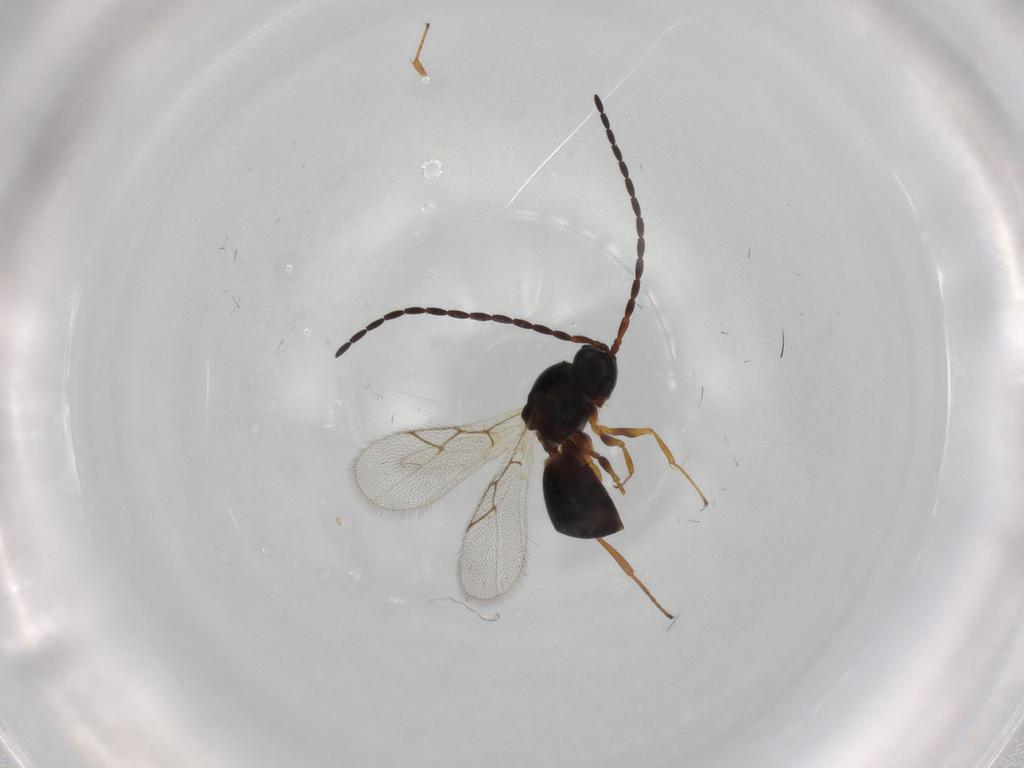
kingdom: Animalia
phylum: Arthropoda
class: Insecta
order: Hymenoptera
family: Figitidae
